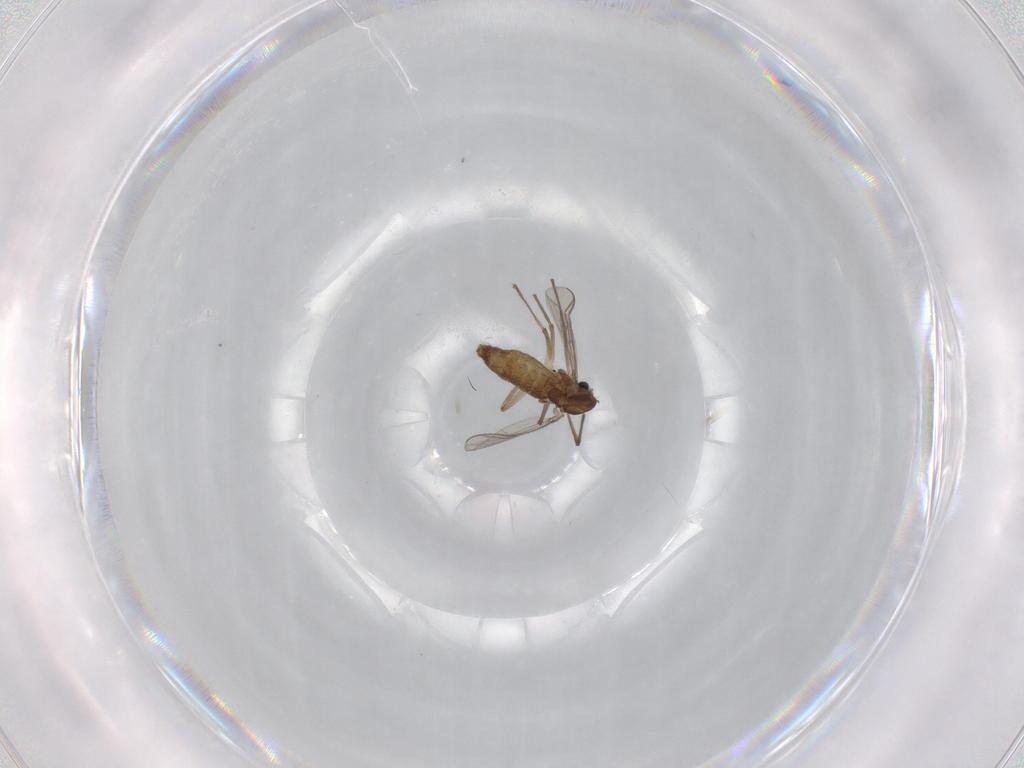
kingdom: Animalia
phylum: Arthropoda
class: Insecta
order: Diptera
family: Chironomidae
